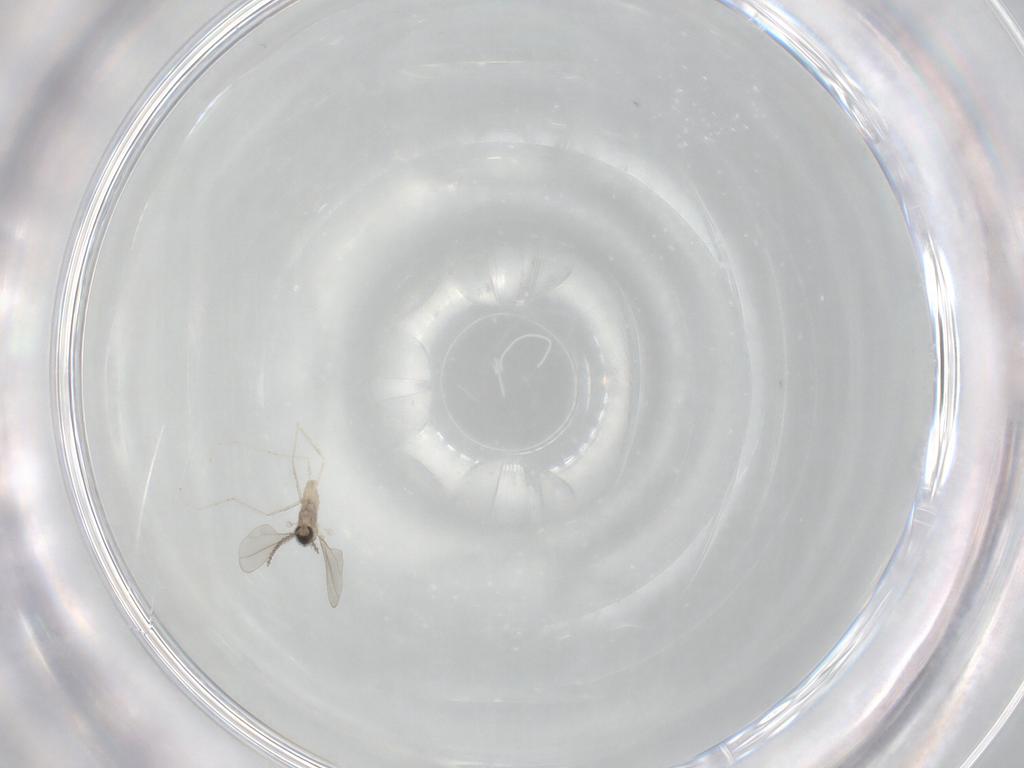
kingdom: Animalia
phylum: Arthropoda
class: Insecta
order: Diptera
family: Cecidomyiidae
